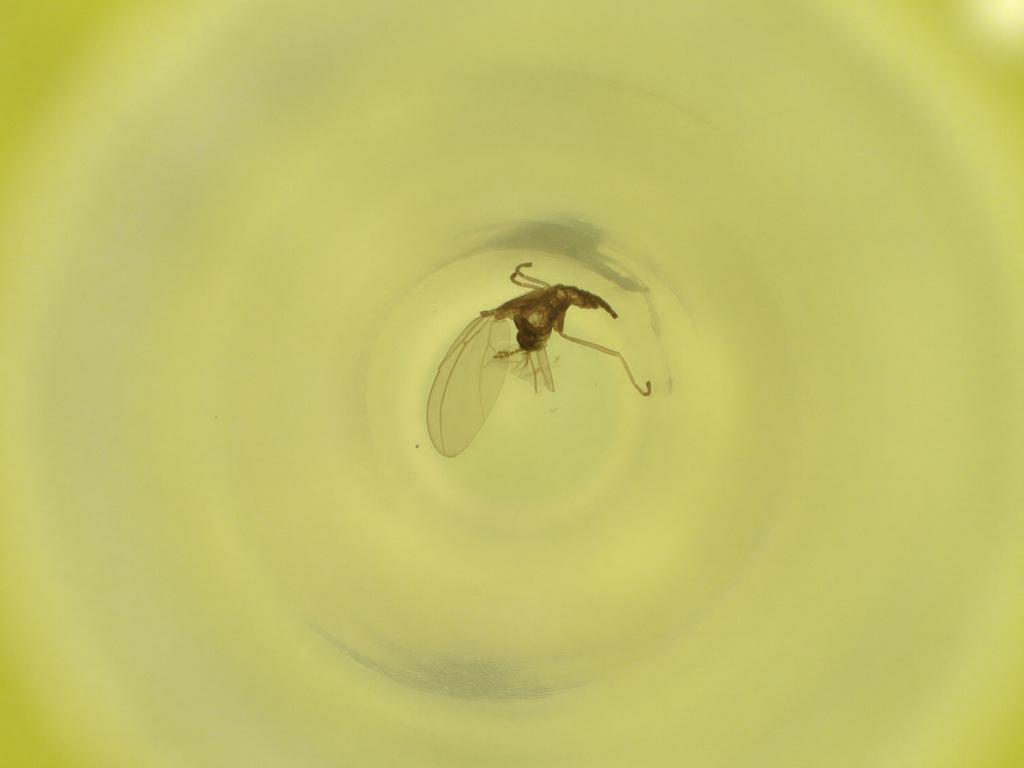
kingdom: Animalia
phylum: Arthropoda
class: Insecta
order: Diptera
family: Cecidomyiidae
